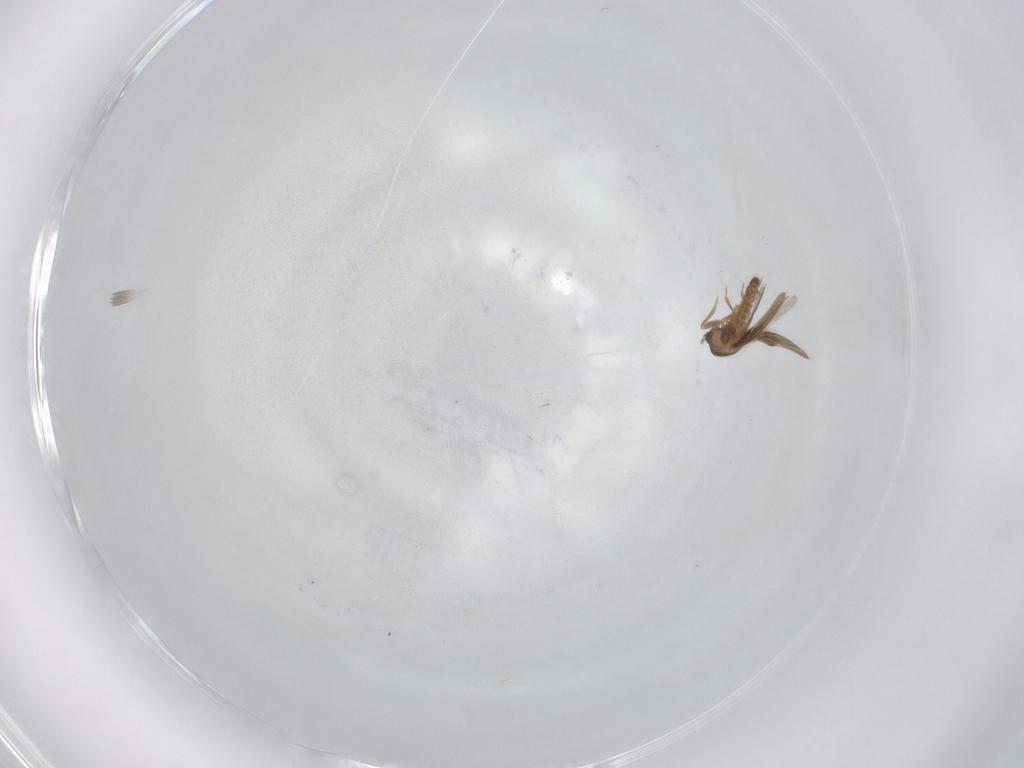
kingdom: Animalia
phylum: Arthropoda
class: Insecta
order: Hemiptera
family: Schizopteridae
